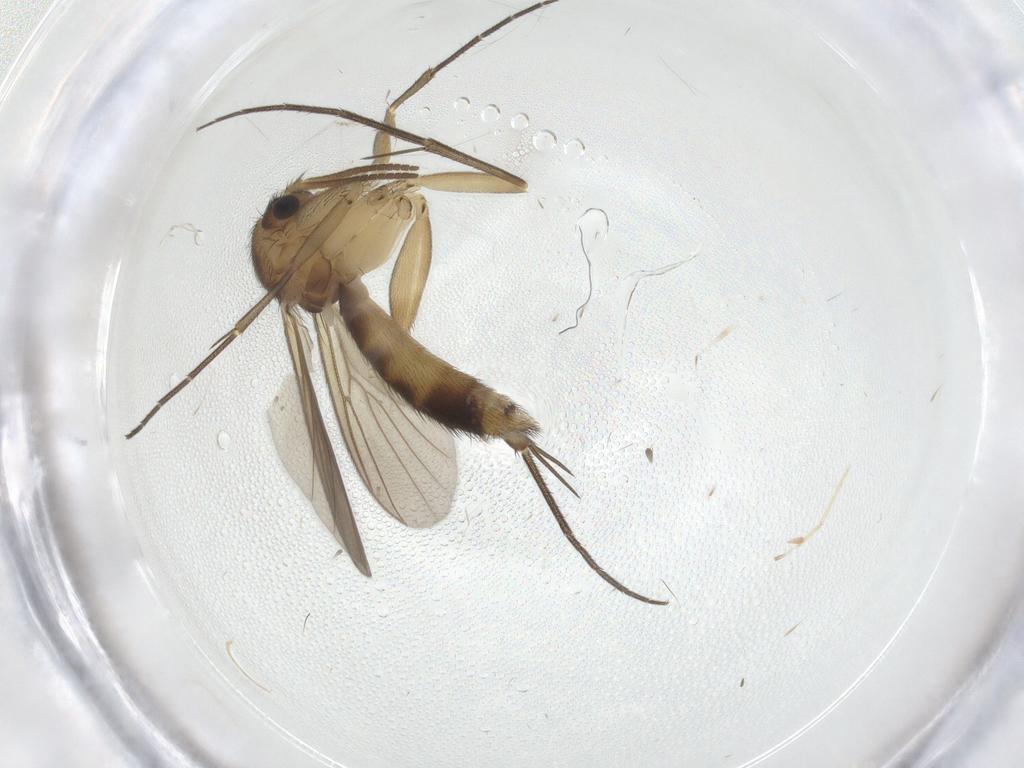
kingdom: Animalia
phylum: Arthropoda
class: Insecta
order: Diptera
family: Mycetophilidae
